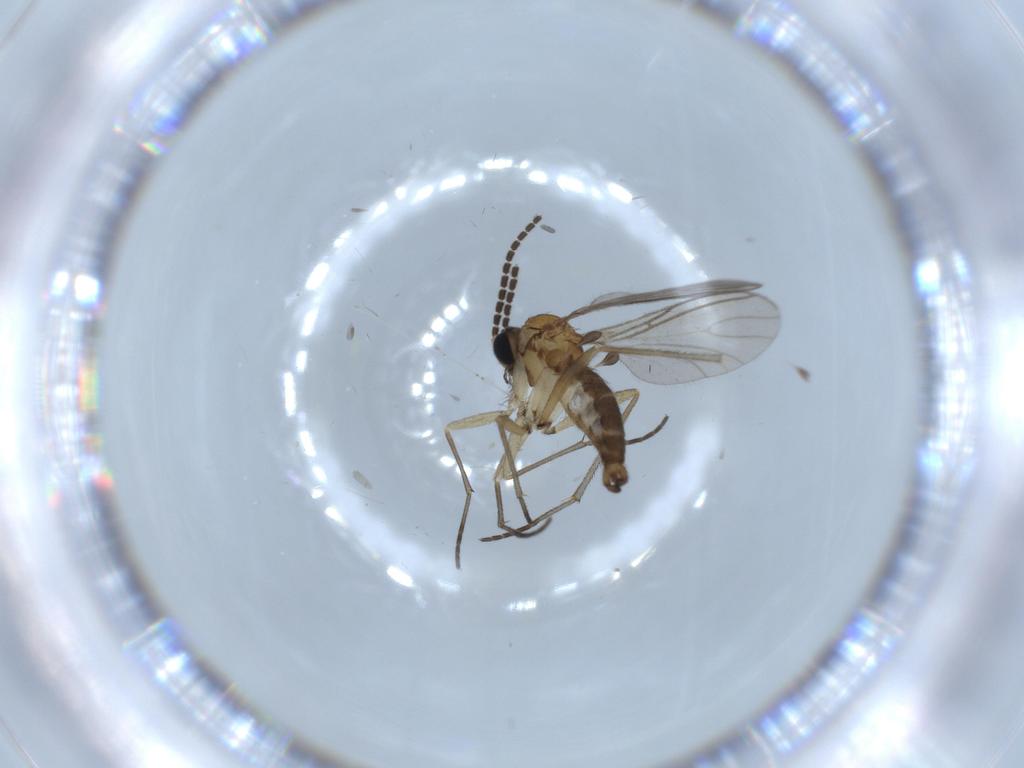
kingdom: Animalia
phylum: Arthropoda
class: Insecta
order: Diptera
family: Sciaridae
